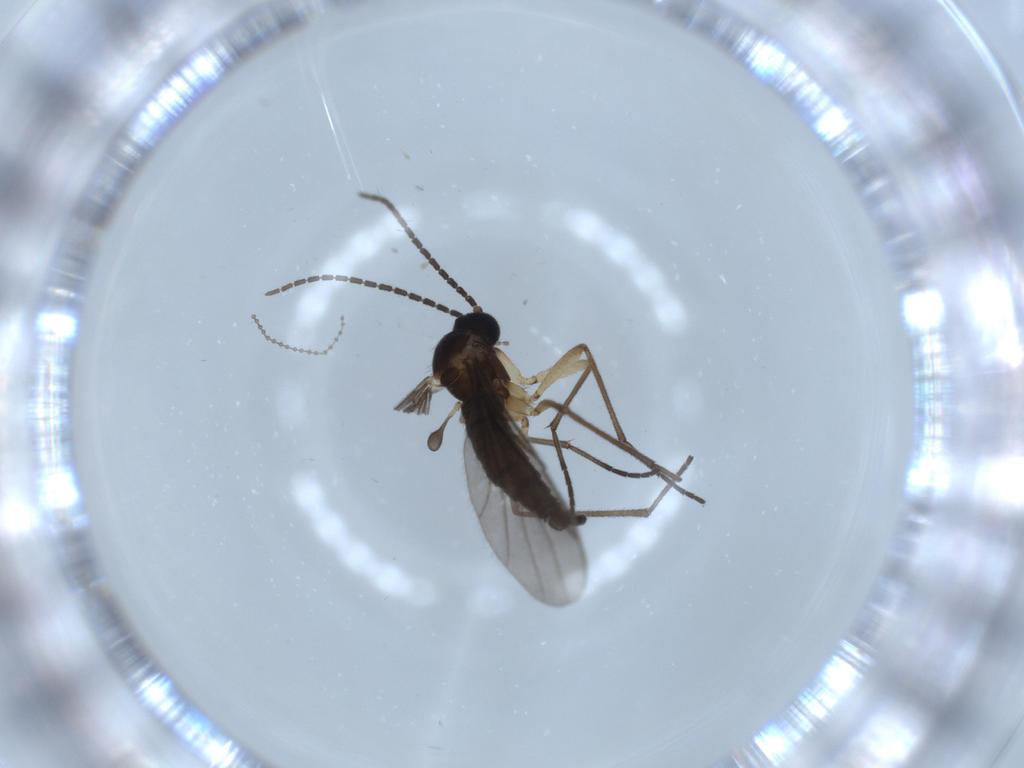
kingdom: Animalia
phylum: Arthropoda
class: Insecta
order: Diptera
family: Sciaridae
